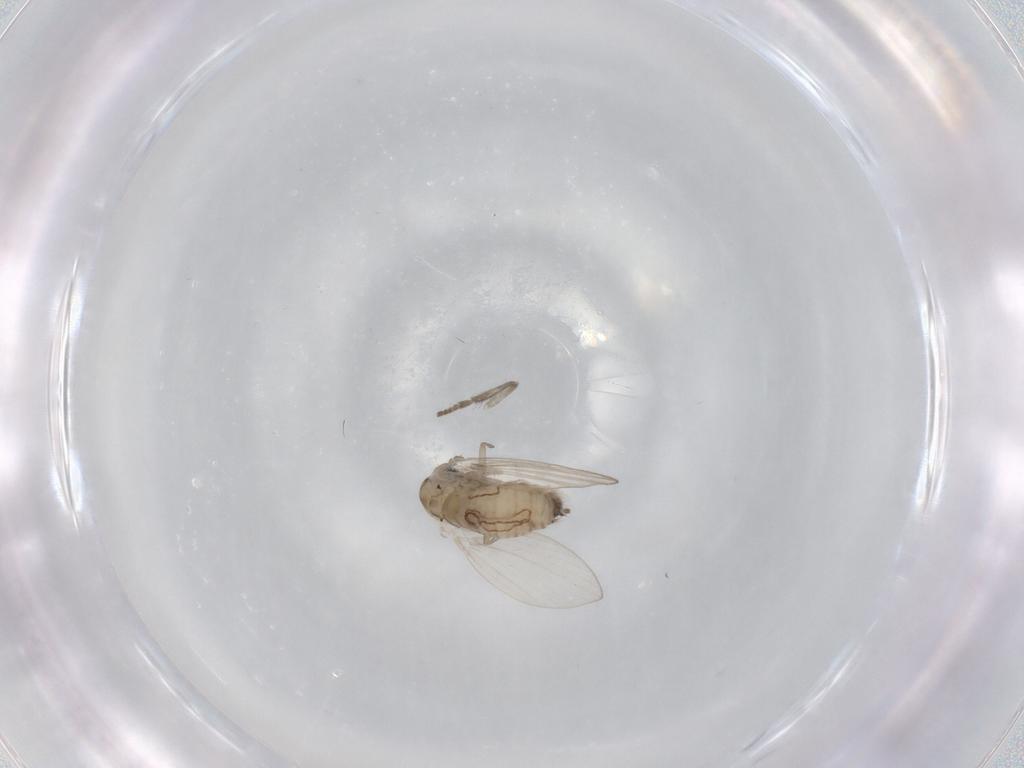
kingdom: Animalia
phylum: Arthropoda
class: Insecta
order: Diptera
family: Psychodidae
